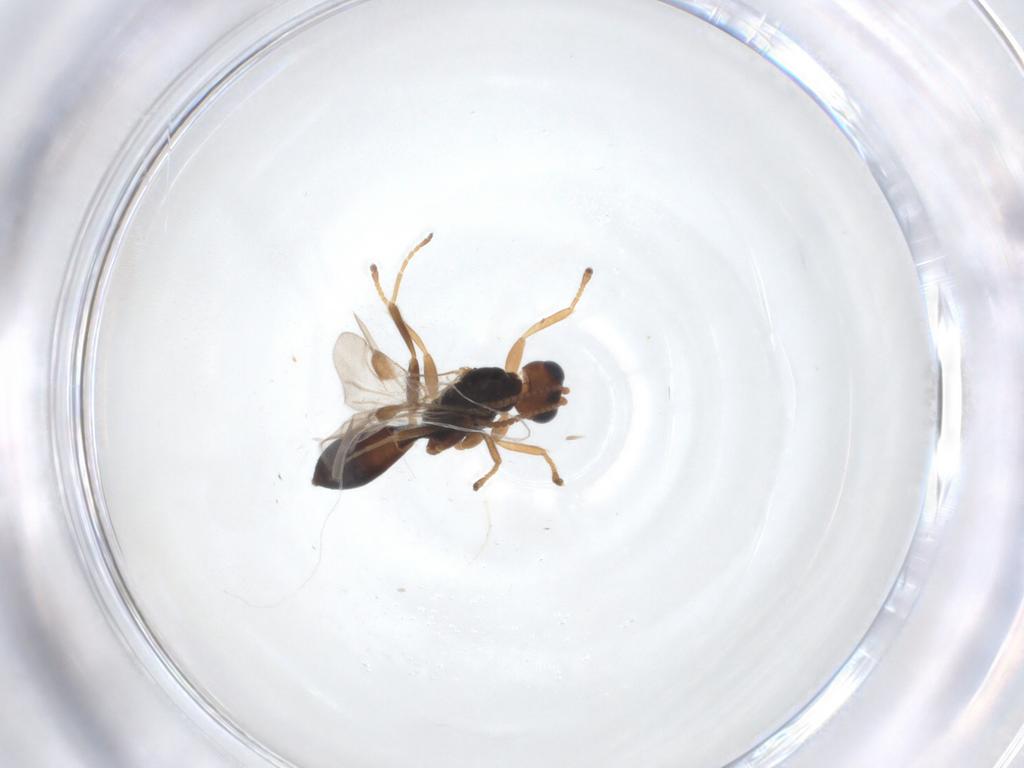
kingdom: Animalia
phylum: Arthropoda
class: Insecta
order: Hymenoptera
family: Braconidae
